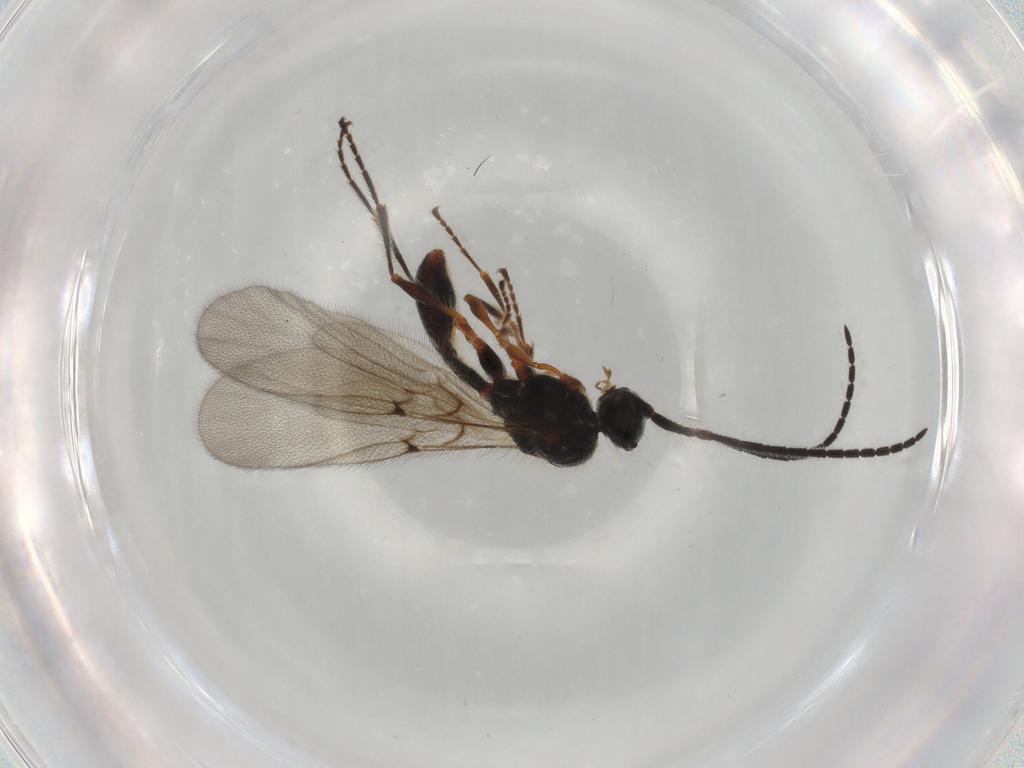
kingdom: Animalia
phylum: Arthropoda
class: Insecta
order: Hymenoptera
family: Diapriidae
